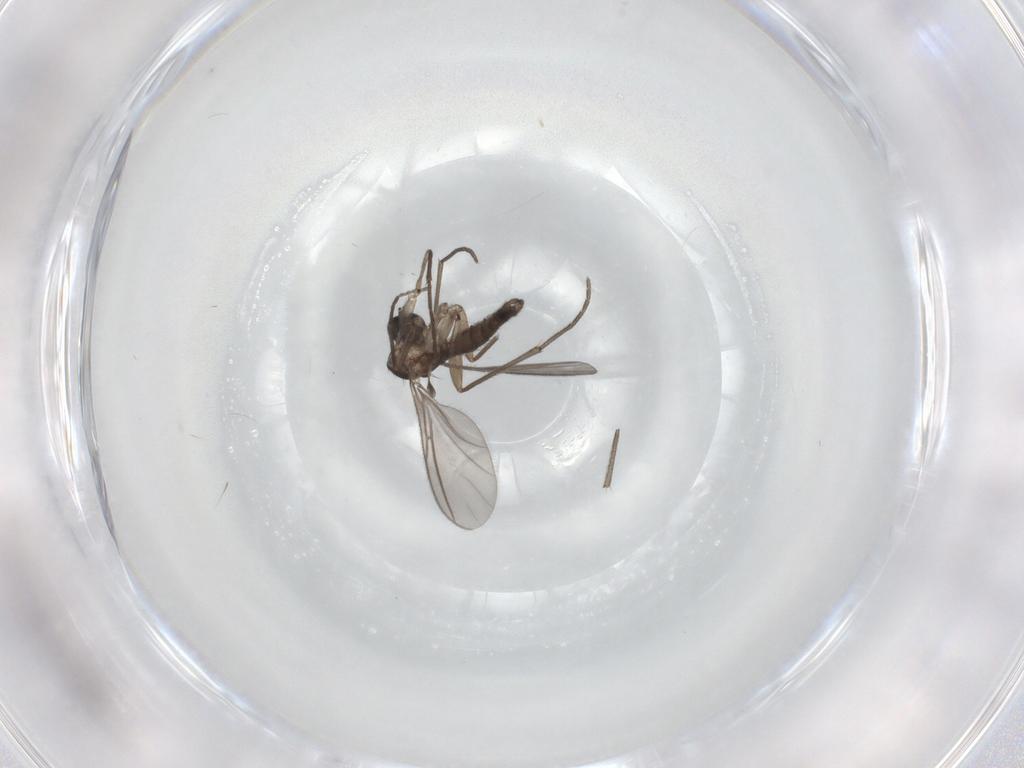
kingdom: Animalia
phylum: Arthropoda
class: Insecta
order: Diptera
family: Sciaridae
